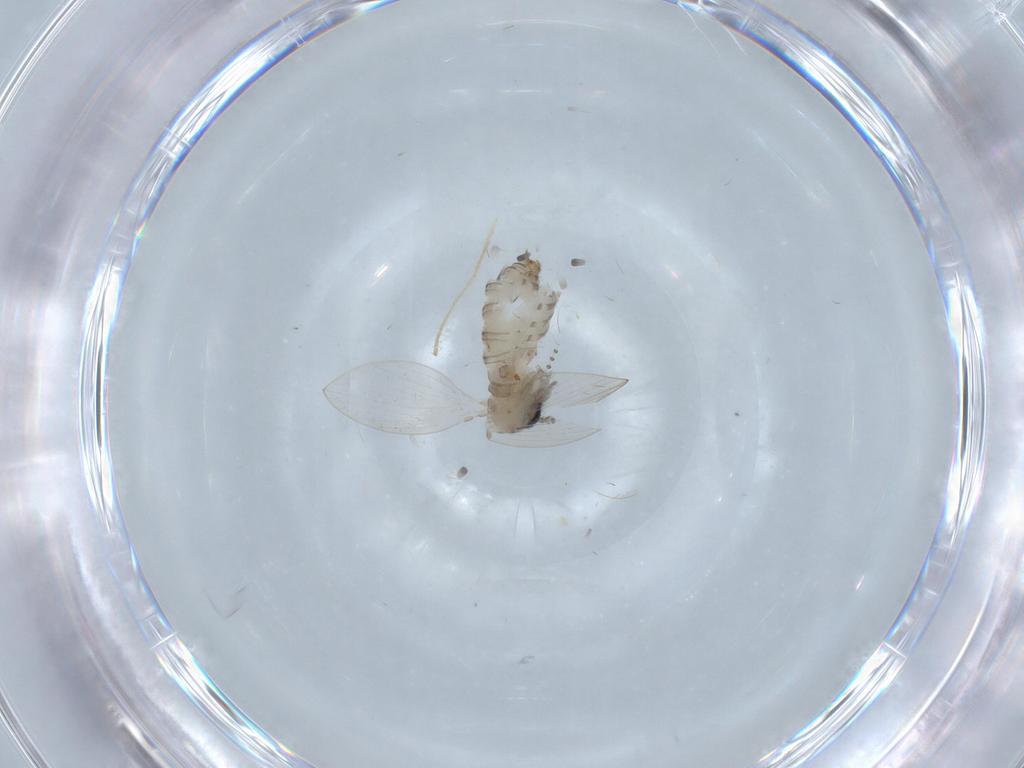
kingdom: Animalia
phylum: Arthropoda
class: Insecta
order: Diptera
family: Psychodidae
